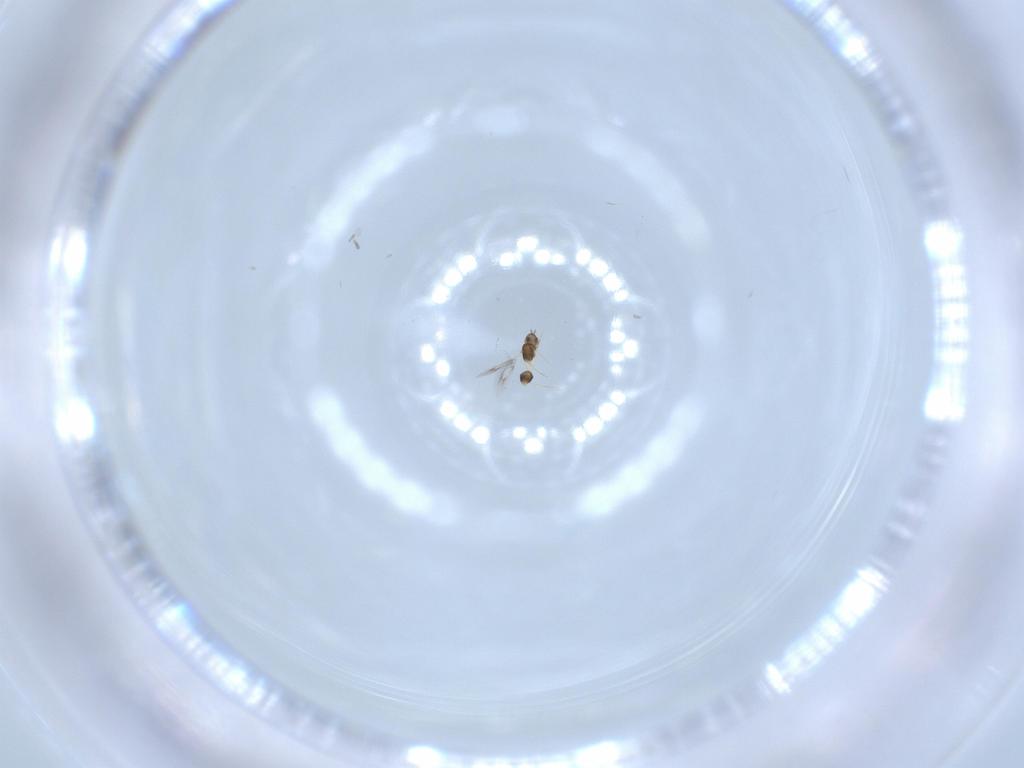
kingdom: Animalia
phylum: Arthropoda
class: Insecta
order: Hymenoptera
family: Mymarommatidae
